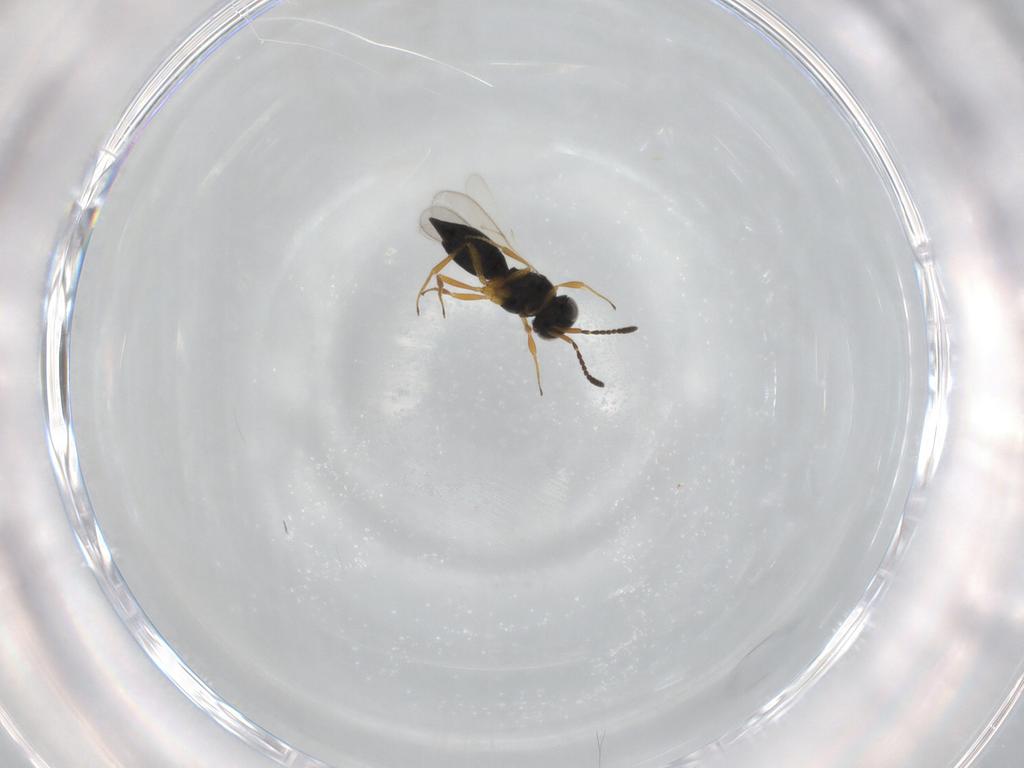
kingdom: Animalia
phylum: Arthropoda
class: Insecta
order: Hymenoptera
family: Scelionidae
